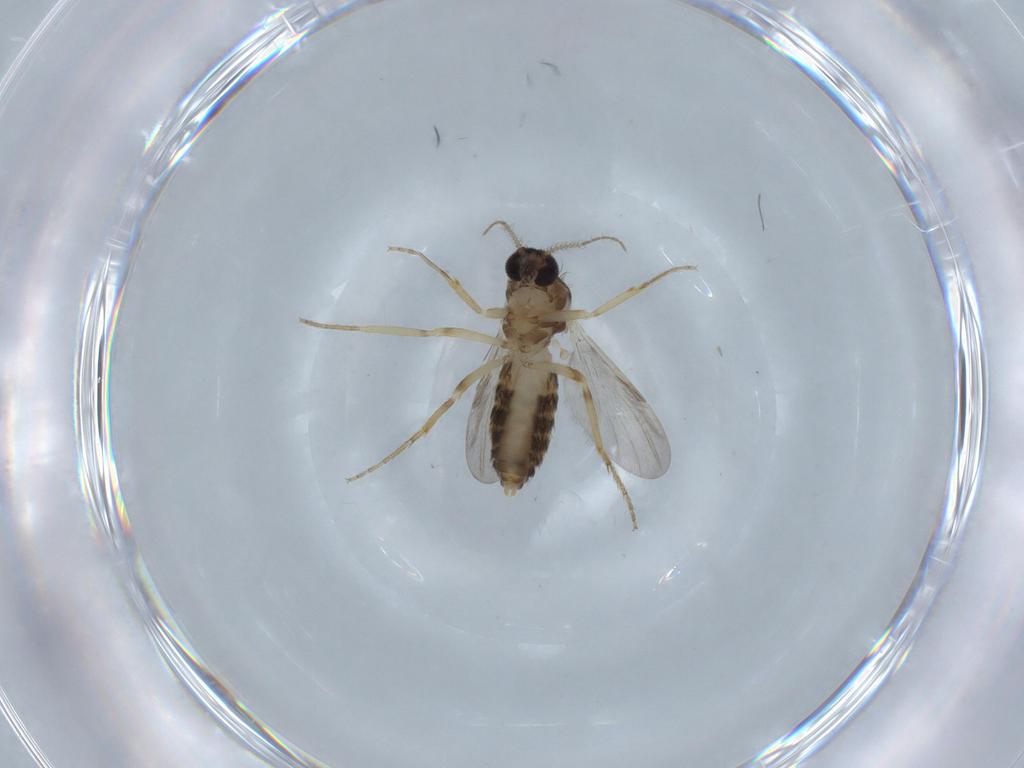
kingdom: Animalia
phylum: Arthropoda
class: Insecta
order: Diptera
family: Ceratopogonidae
